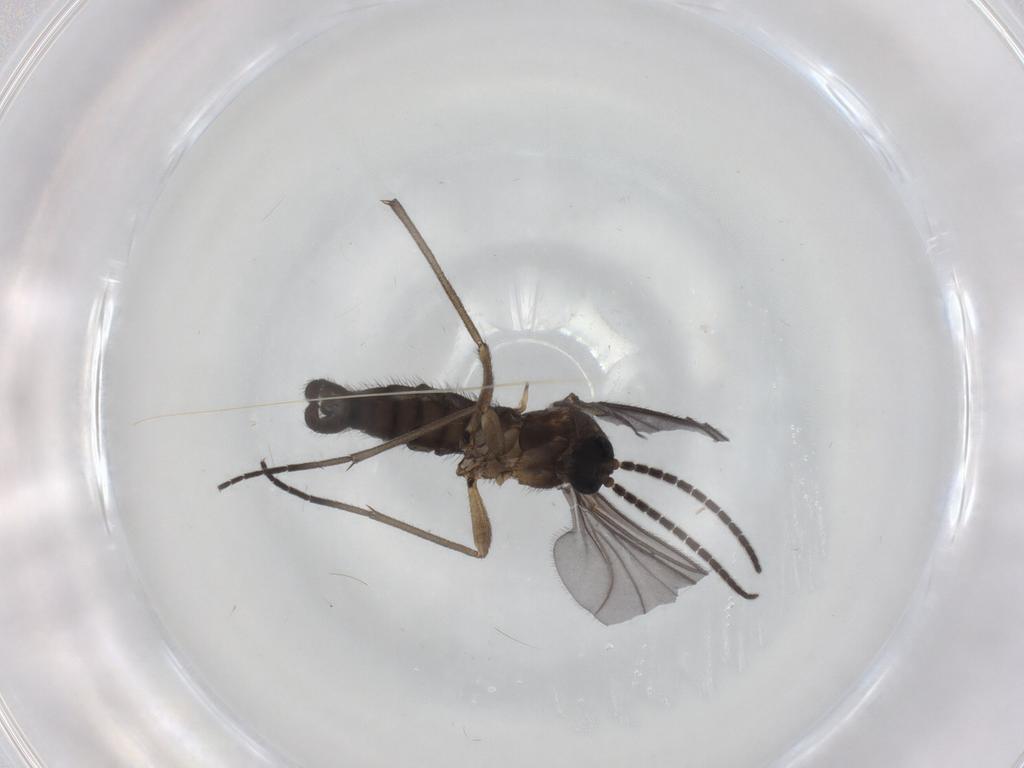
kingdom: Animalia
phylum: Arthropoda
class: Insecta
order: Diptera
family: Sciaridae
